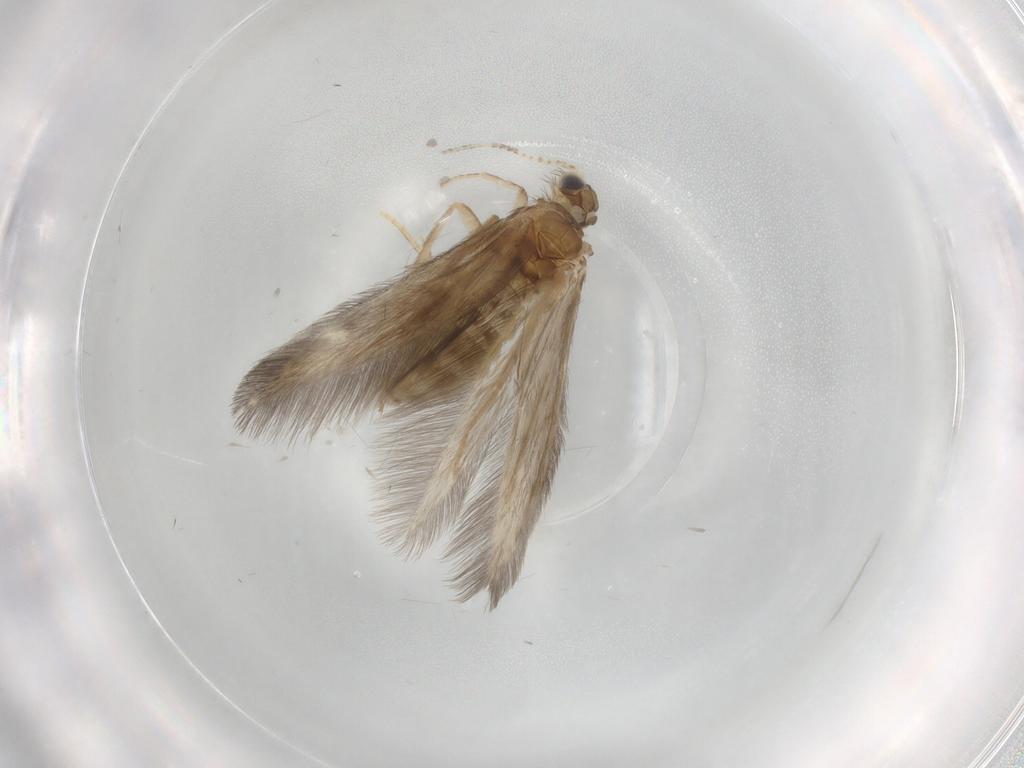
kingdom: Animalia
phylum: Arthropoda
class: Insecta
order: Trichoptera
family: Hydroptilidae
